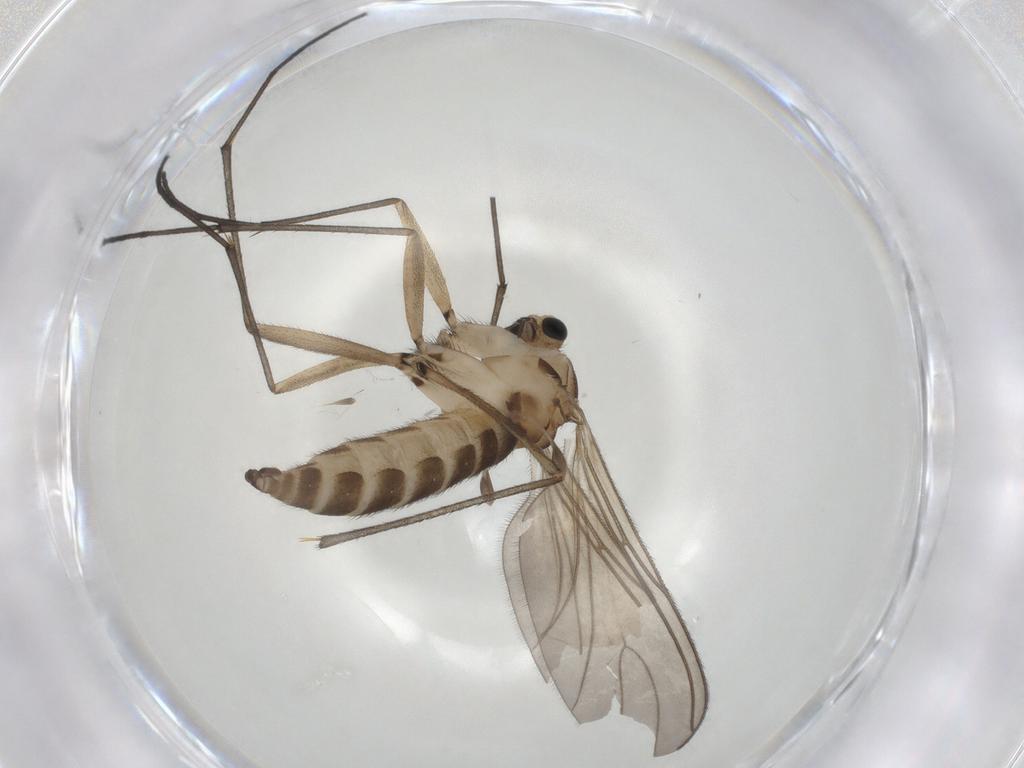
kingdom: Animalia
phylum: Arthropoda
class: Insecta
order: Diptera
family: Sciaridae
